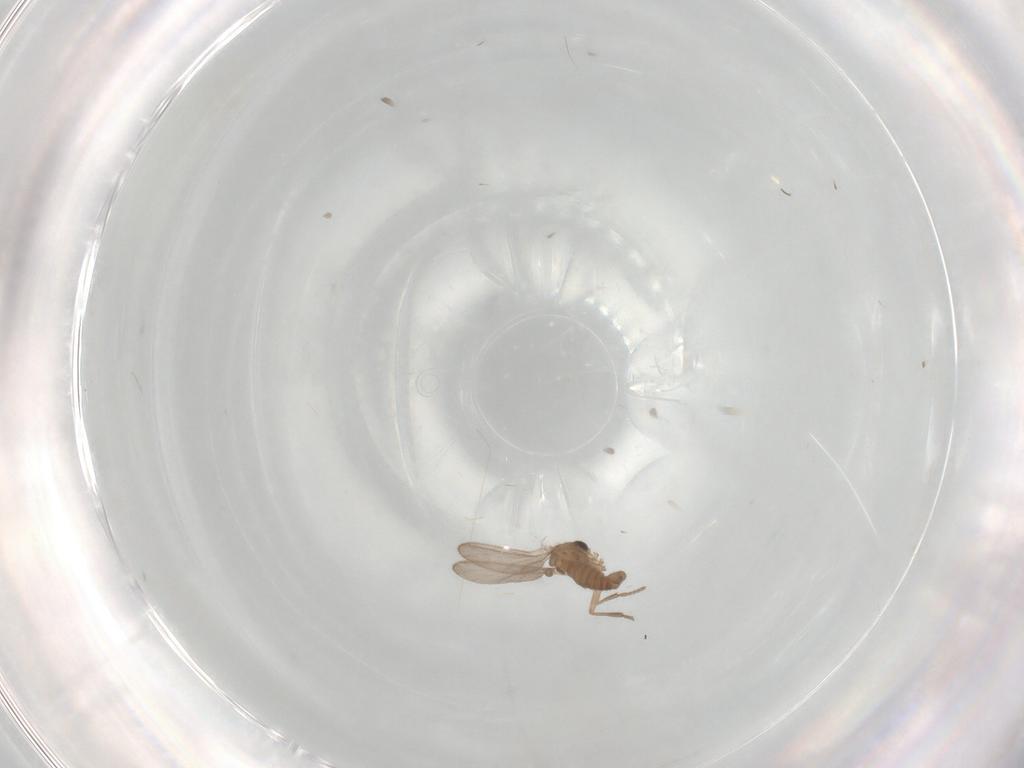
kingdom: Animalia
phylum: Arthropoda
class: Insecta
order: Diptera
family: Sciaridae
